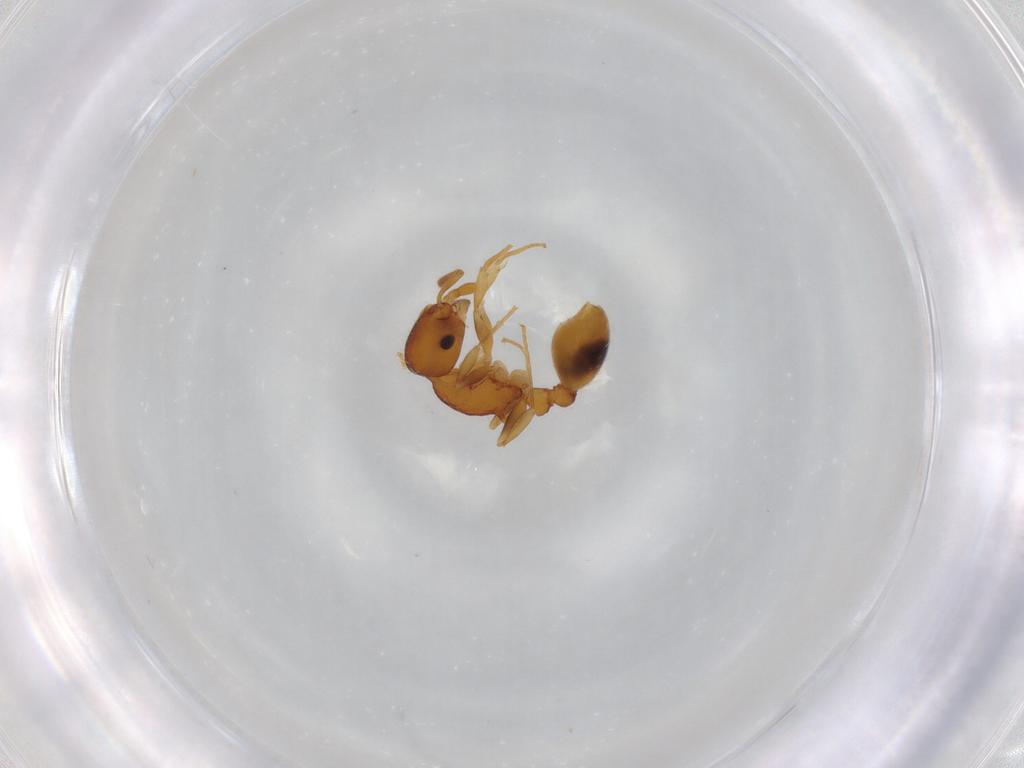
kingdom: Animalia
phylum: Arthropoda
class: Insecta
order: Hymenoptera
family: Formicidae
